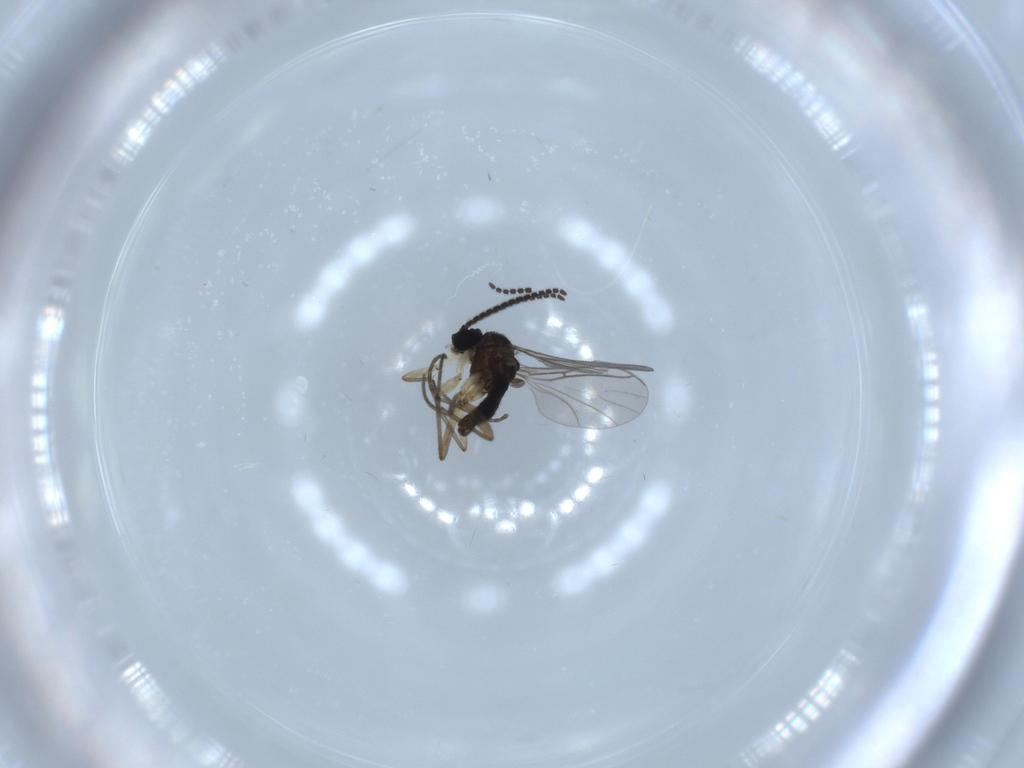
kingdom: Animalia
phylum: Arthropoda
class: Insecta
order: Diptera
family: Sciaridae
